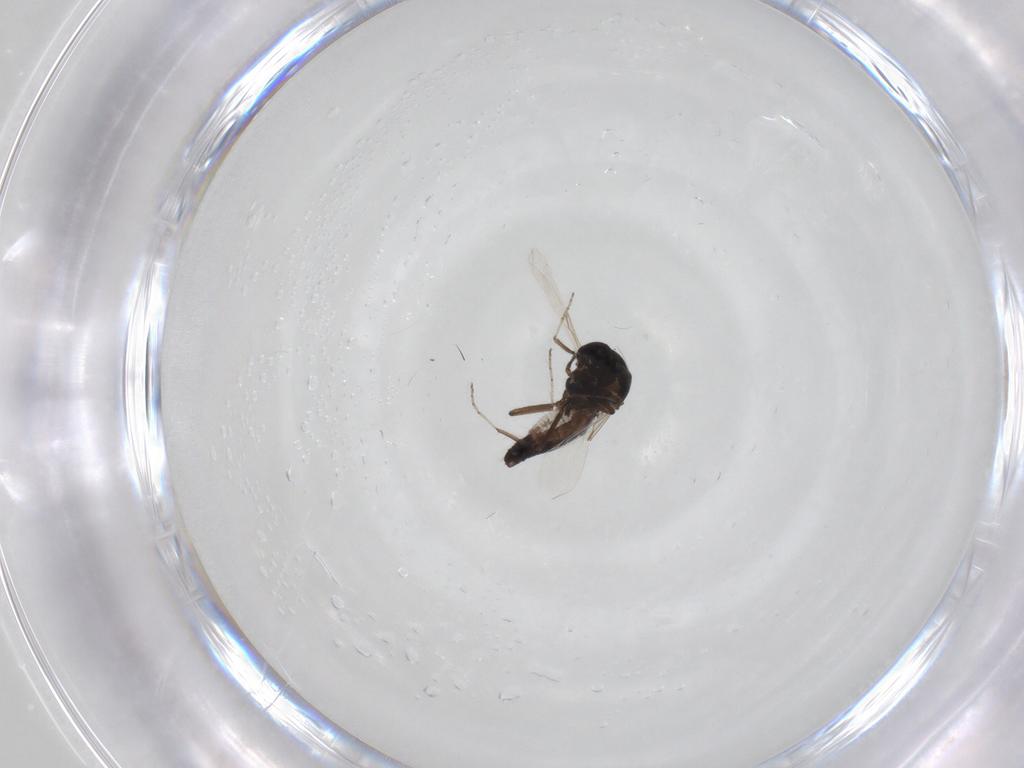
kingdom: Animalia
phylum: Arthropoda
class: Insecta
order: Diptera
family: Ceratopogonidae
